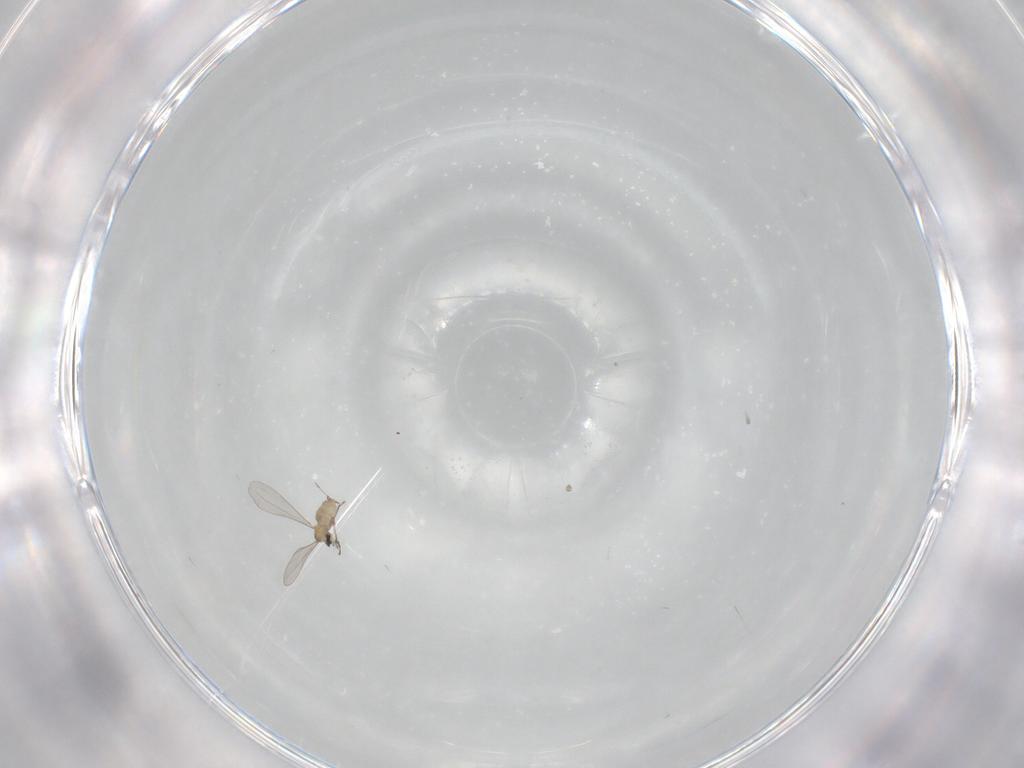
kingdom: Animalia
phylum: Arthropoda
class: Insecta
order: Diptera
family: Cecidomyiidae
